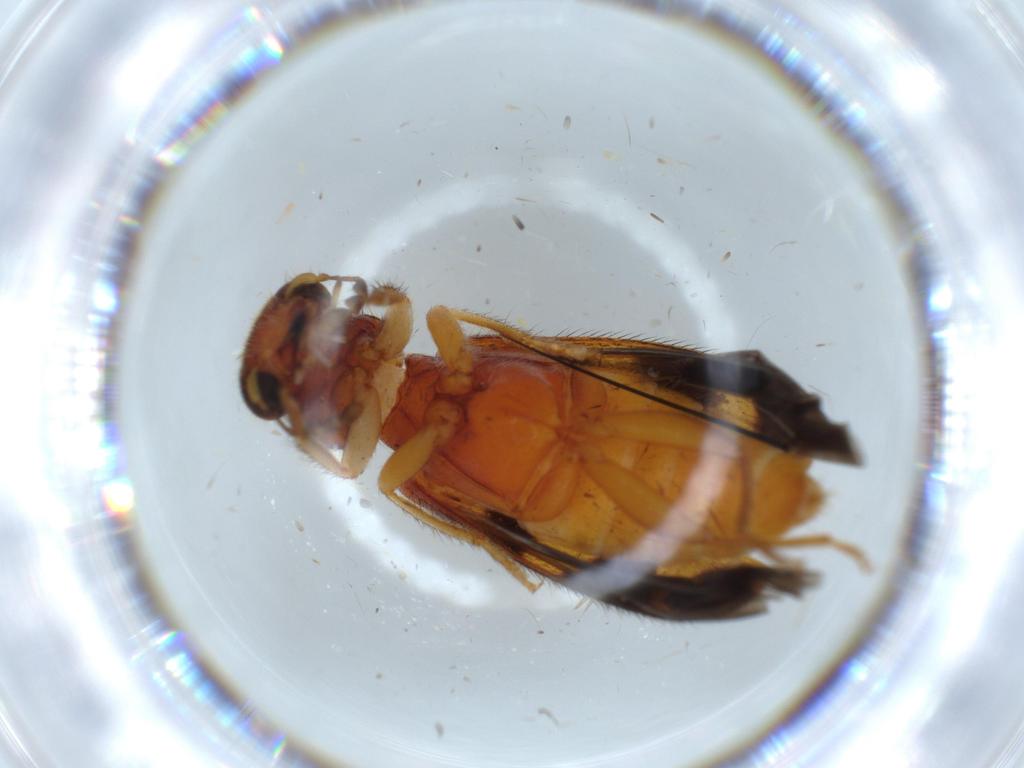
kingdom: Animalia
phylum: Arthropoda
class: Insecta
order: Coleoptera
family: Cleridae
